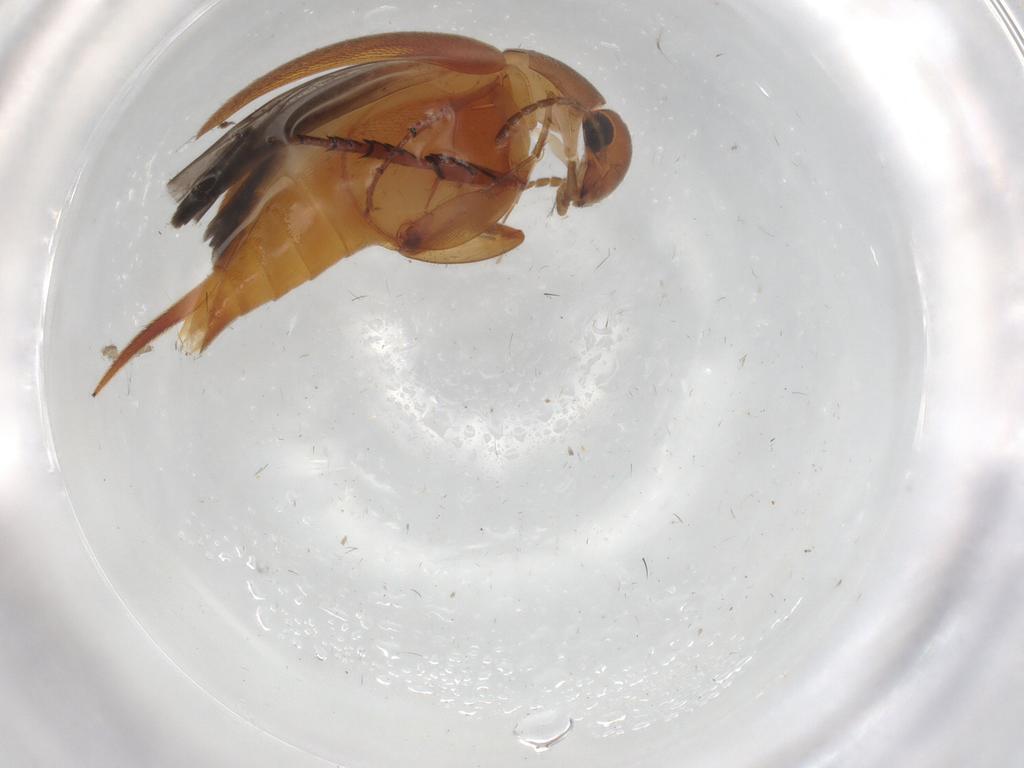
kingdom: Animalia
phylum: Arthropoda
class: Insecta
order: Coleoptera
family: Mordellidae
